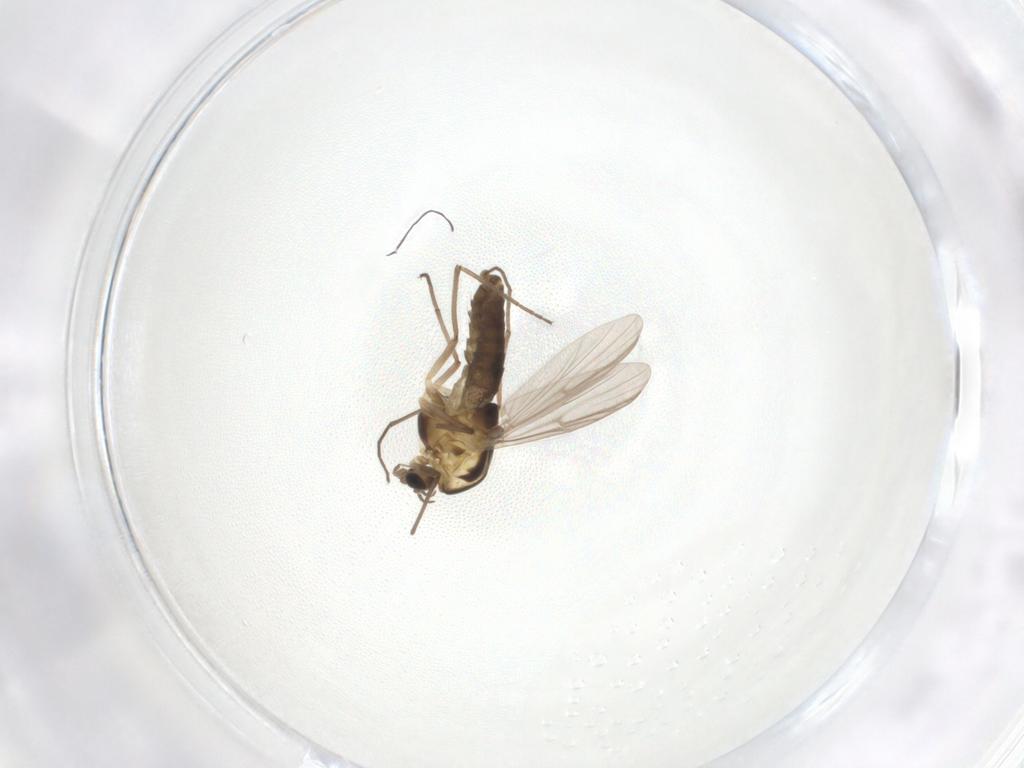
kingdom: Animalia
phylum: Arthropoda
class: Insecta
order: Diptera
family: Chironomidae
